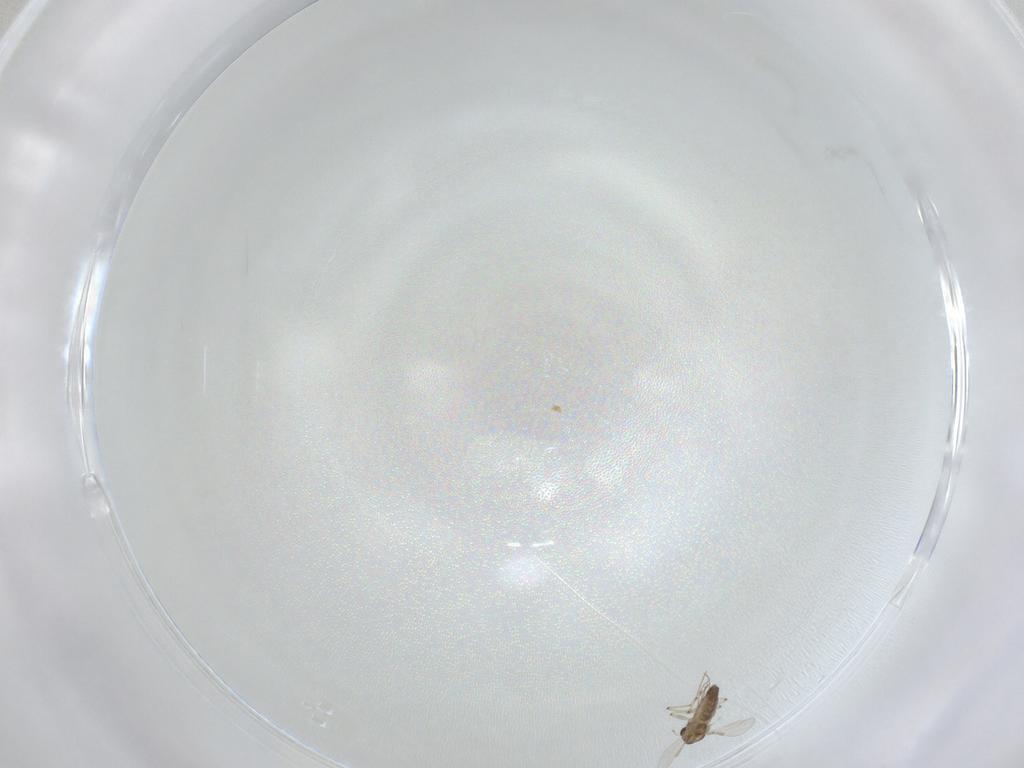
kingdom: Animalia
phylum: Arthropoda
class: Insecta
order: Diptera
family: Chironomidae
